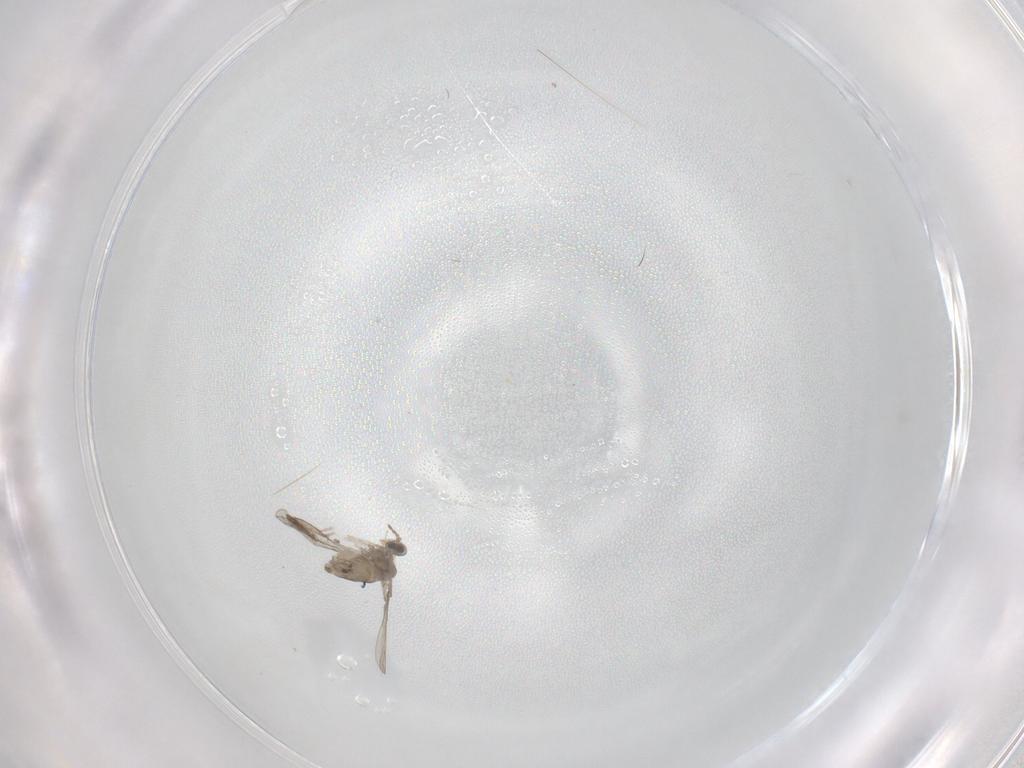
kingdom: Animalia
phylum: Arthropoda
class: Insecta
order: Diptera
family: Cecidomyiidae
